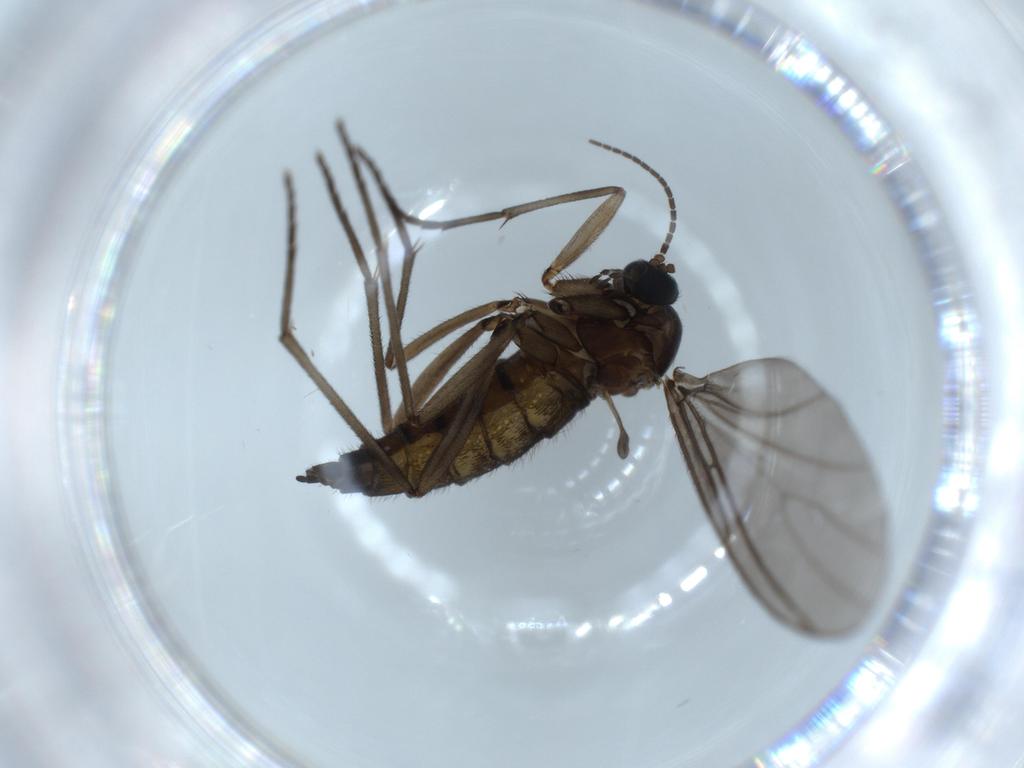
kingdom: Animalia
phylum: Arthropoda
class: Insecta
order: Diptera
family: Sciaridae
